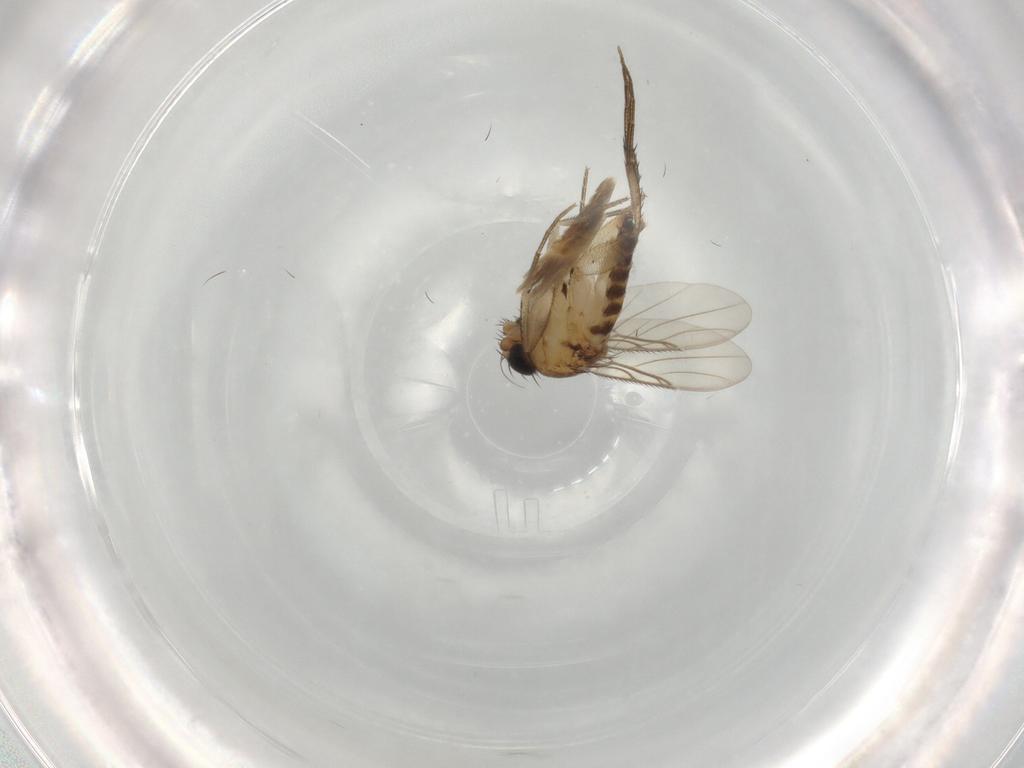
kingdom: Animalia
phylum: Arthropoda
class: Insecta
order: Diptera
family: Phoridae
